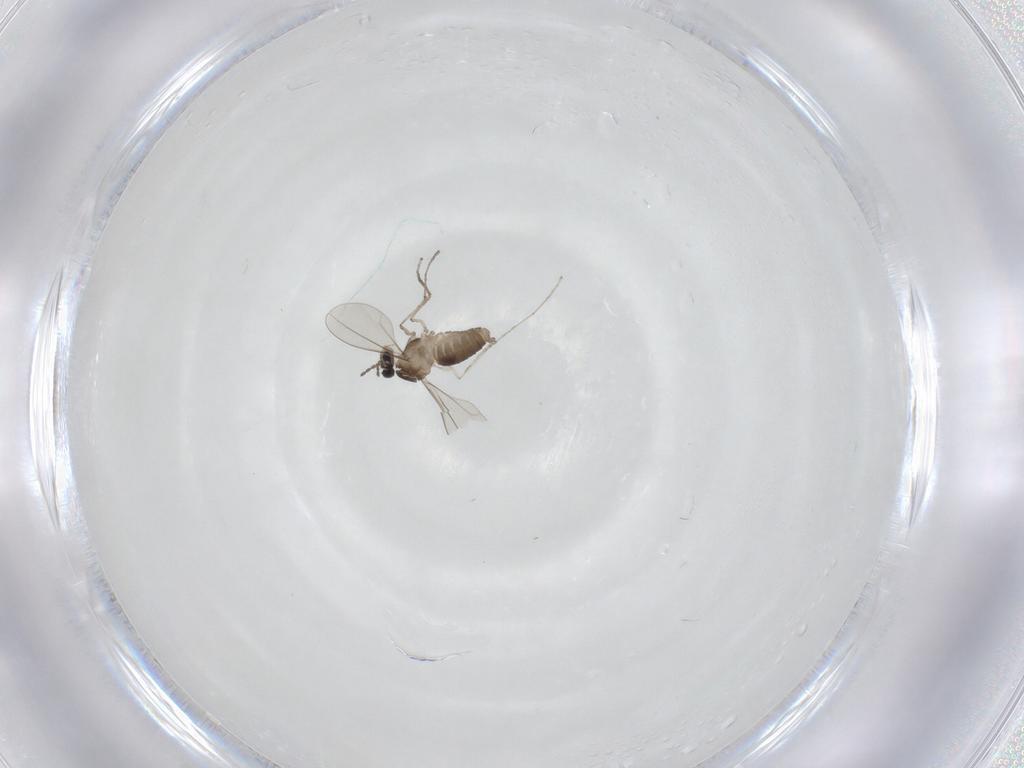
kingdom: Animalia
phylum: Arthropoda
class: Insecta
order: Diptera
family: Cecidomyiidae
